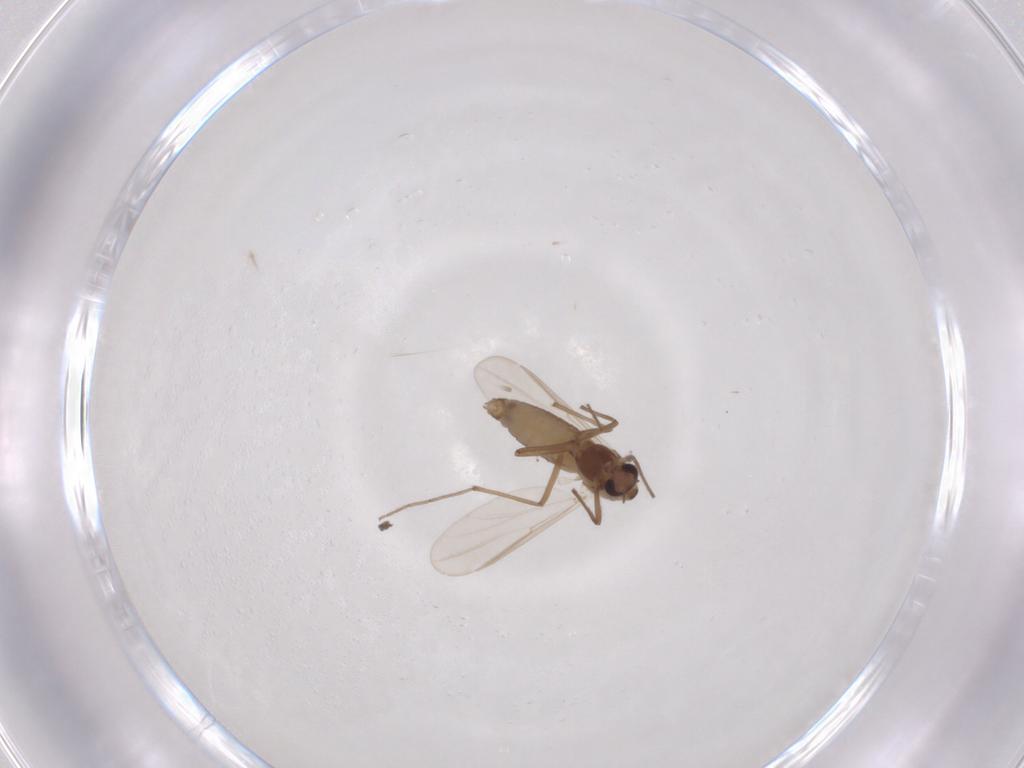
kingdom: Animalia
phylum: Arthropoda
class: Insecta
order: Diptera
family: Chironomidae
